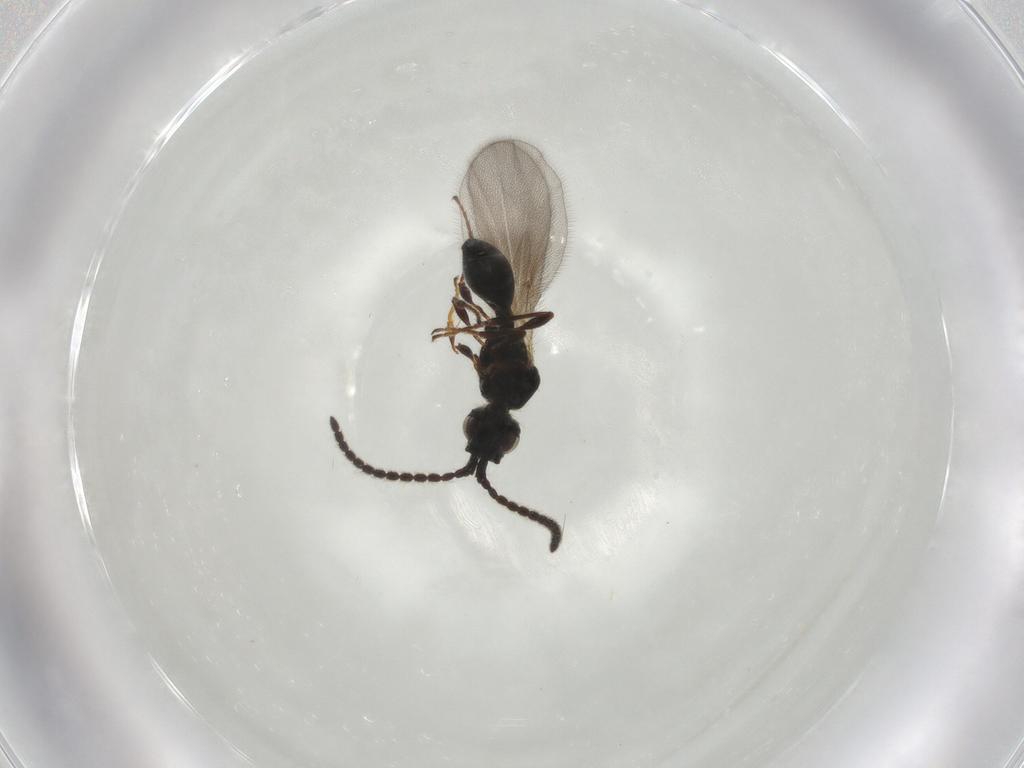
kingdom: Animalia
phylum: Arthropoda
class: Insecta
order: Hymenoptera
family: Diapriidae
